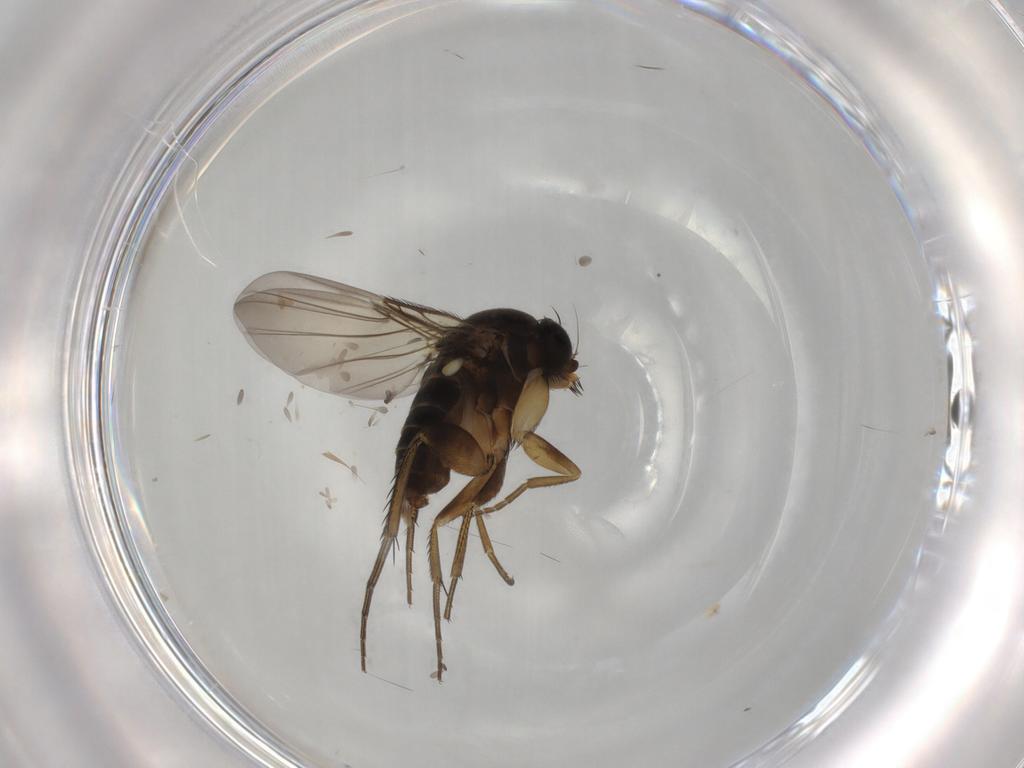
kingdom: Animalia
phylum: Arthropoda
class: Insecta
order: Diptera
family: Phoridae
